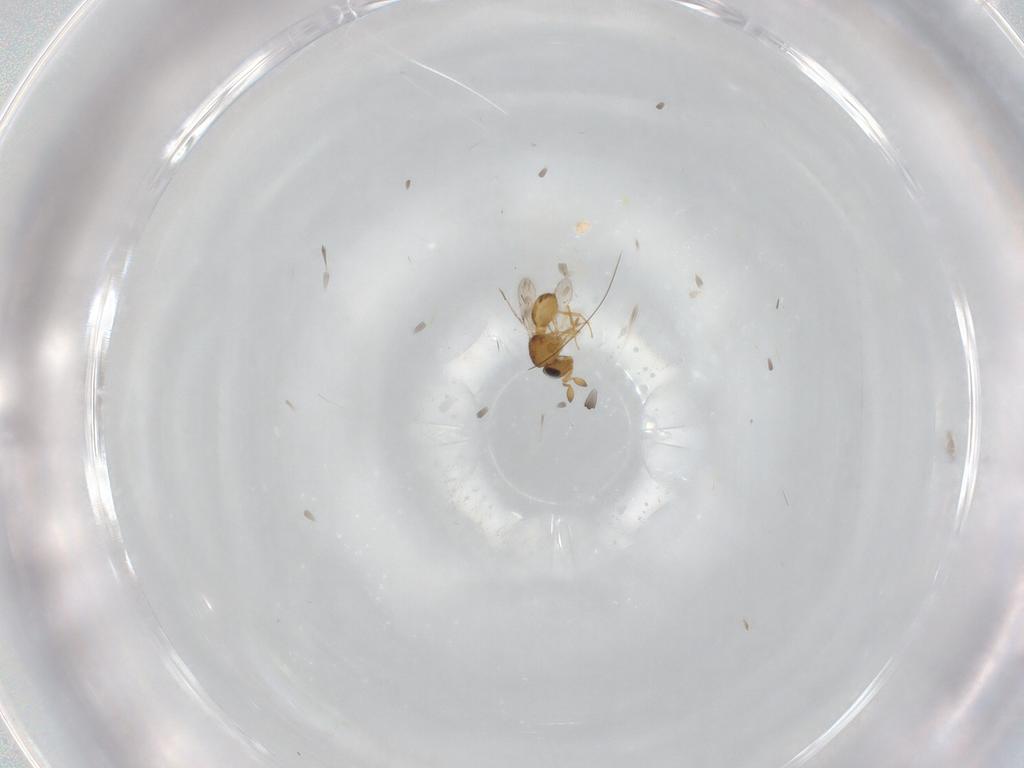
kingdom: Animalia
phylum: Arthropoda
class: Insecta
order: Hymenoptera
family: Scelionidae
